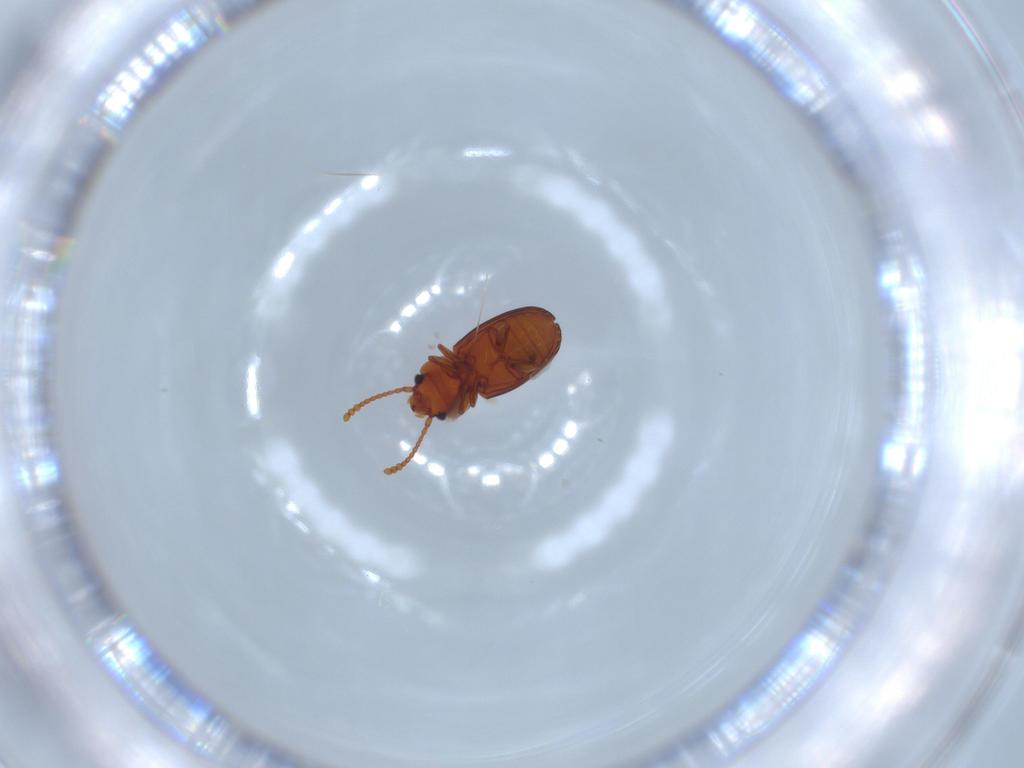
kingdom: Animalia
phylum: Arthropoda
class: Insecta
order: Coleoptera
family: Laemophloeidae
